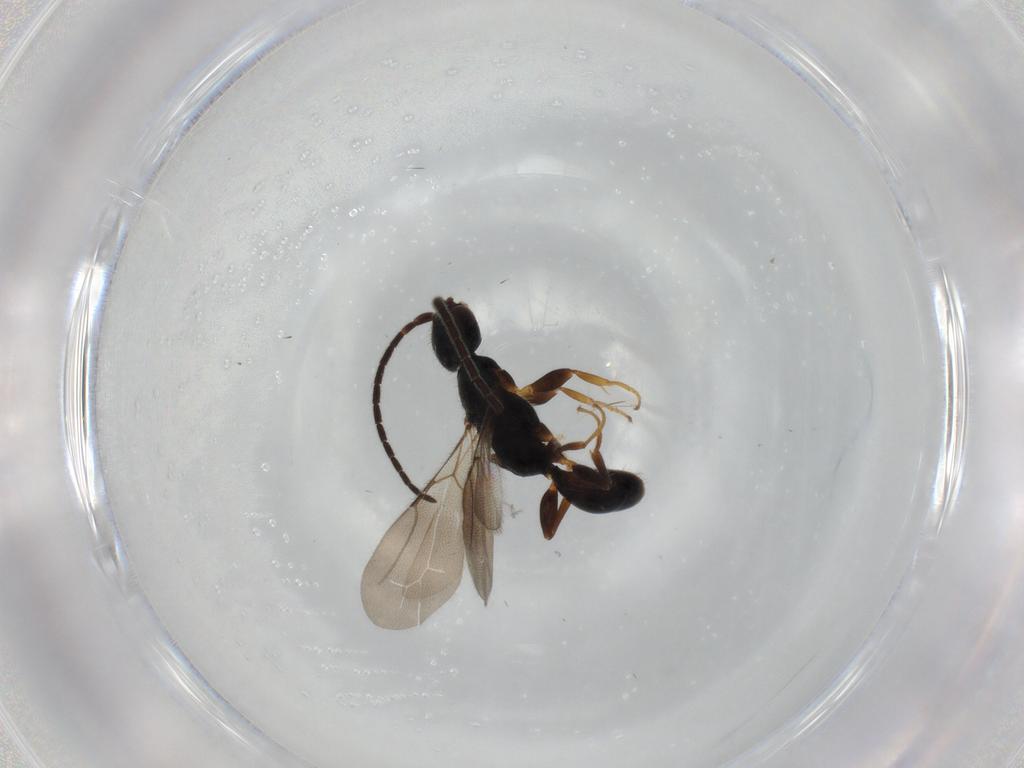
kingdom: Animalia
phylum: Arthropoda
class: Insecta
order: Hymenoptera
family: Bethylidae
